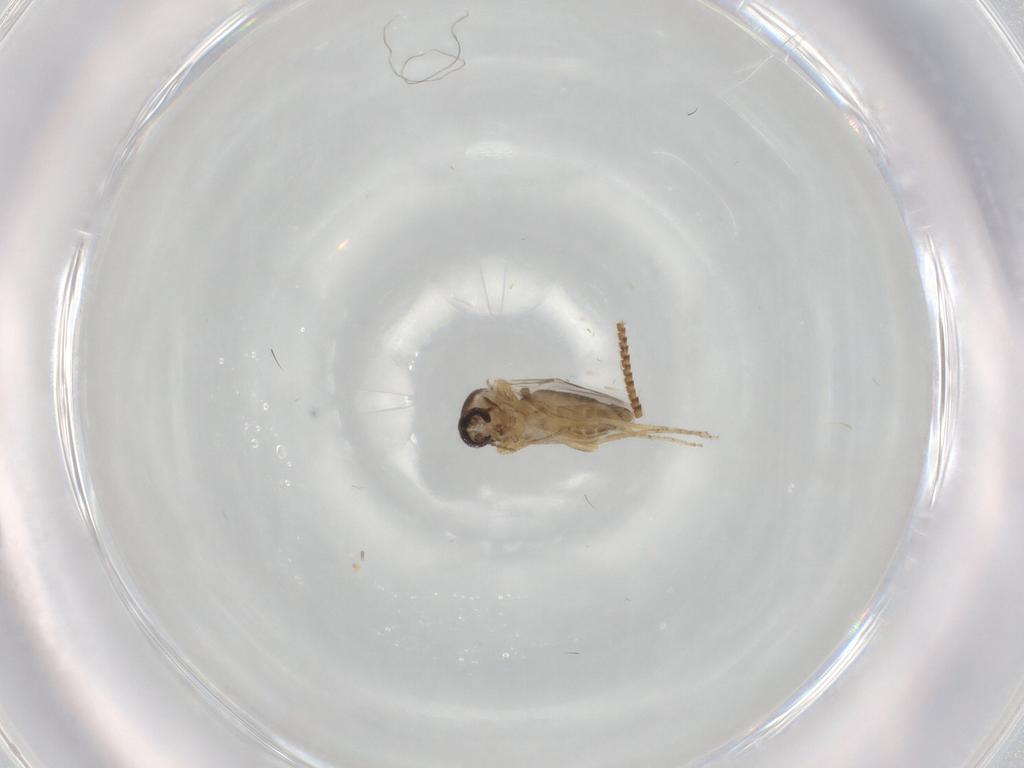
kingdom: Animalia
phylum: Arthropoda
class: Insecta
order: Diptera
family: Ceratopogonidae
